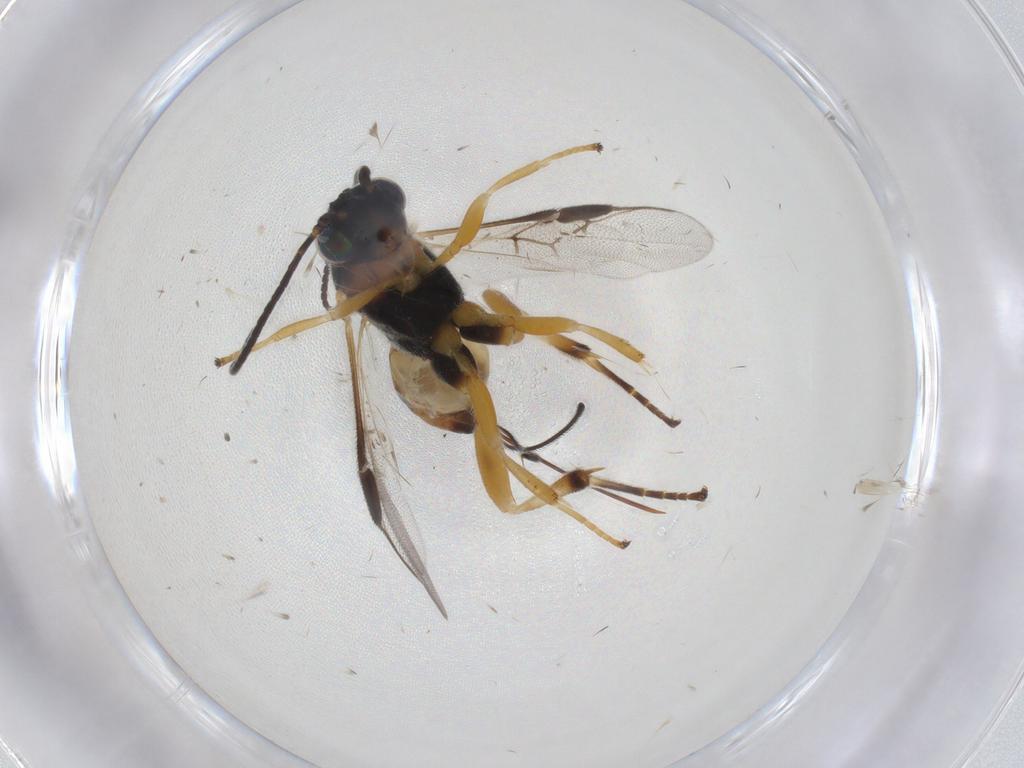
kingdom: Animalia
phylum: Arthropoda
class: Insecta
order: Hymenoptera
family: Braconidae
